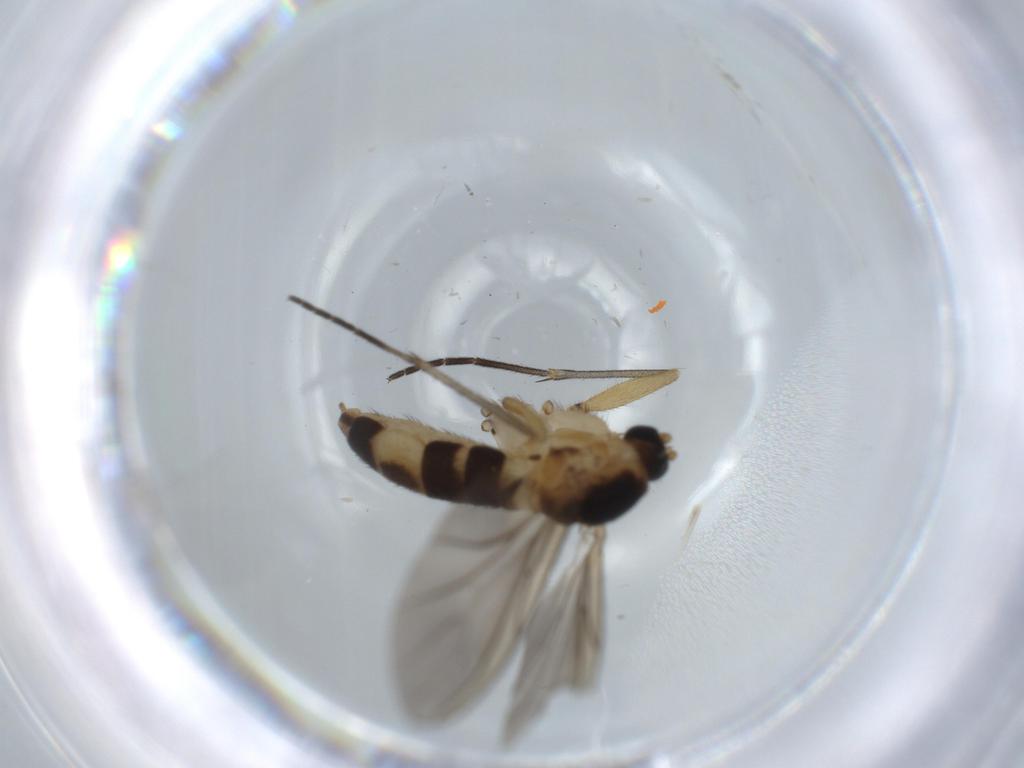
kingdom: Animalia
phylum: Arthropoda
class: Insecta
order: Diptera
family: Sciaridae
